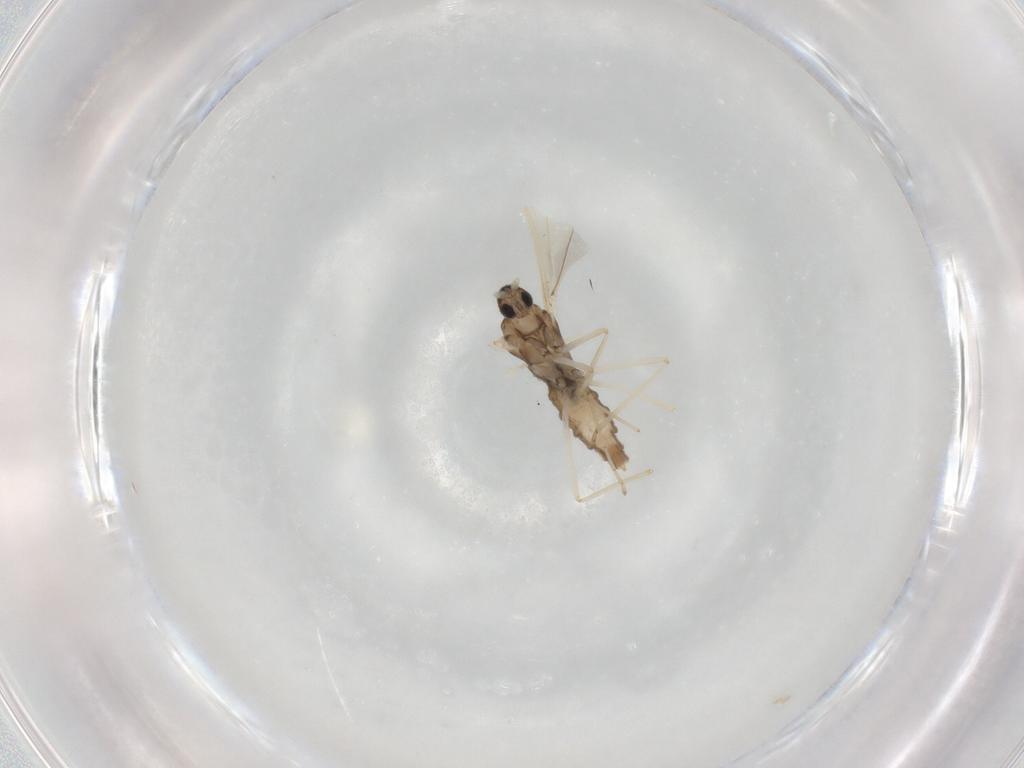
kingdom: Animalia
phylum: Arthropoda
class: Insecta
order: Diptera
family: Cecidomyiidae
